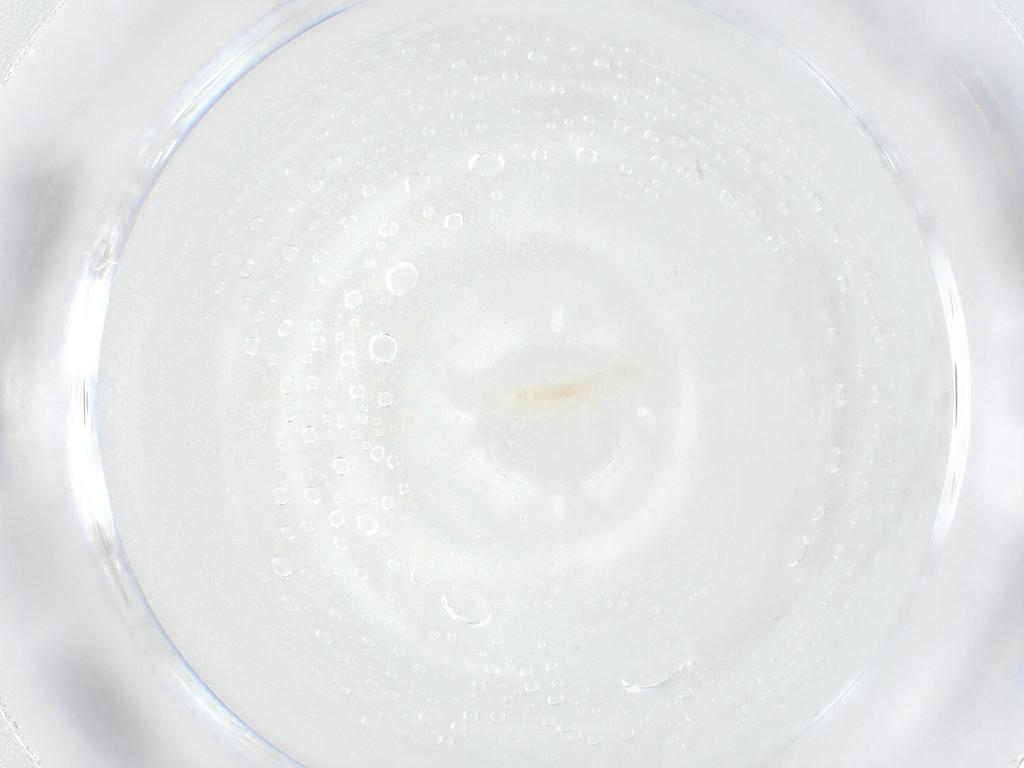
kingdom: Animalia
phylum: Arthropoda
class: Collembola
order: Poduromorpha
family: Onychiuridae
